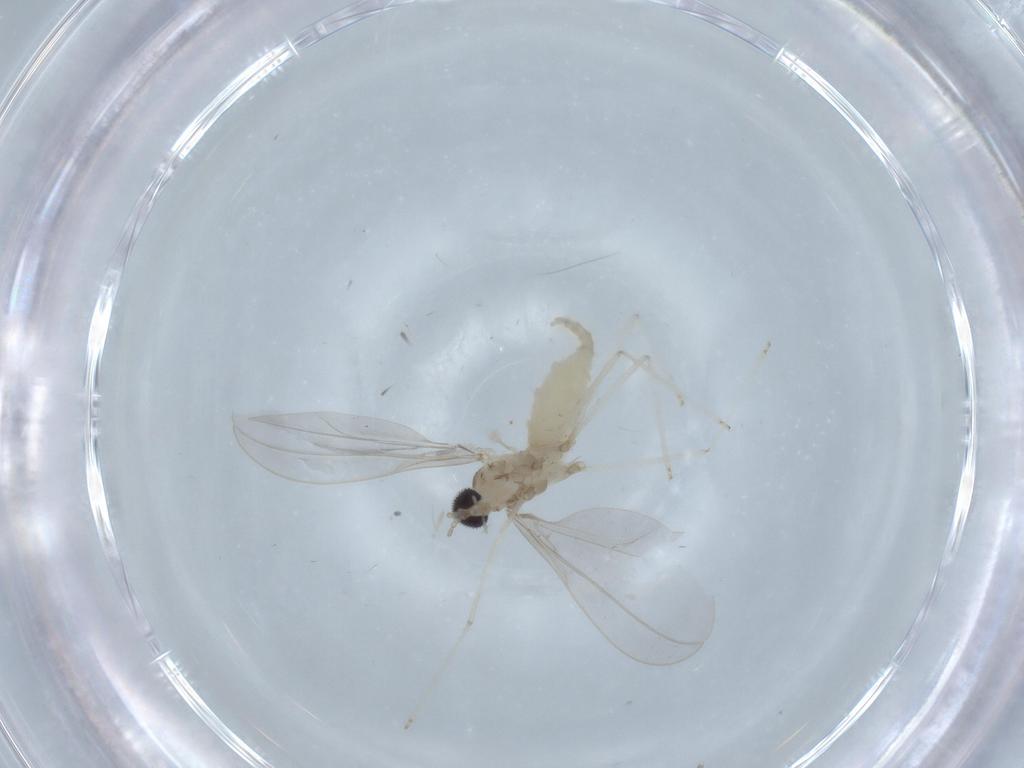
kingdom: Animalia
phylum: Arthropoda
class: Insecta
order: Diptera
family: Cecidomyiidae
